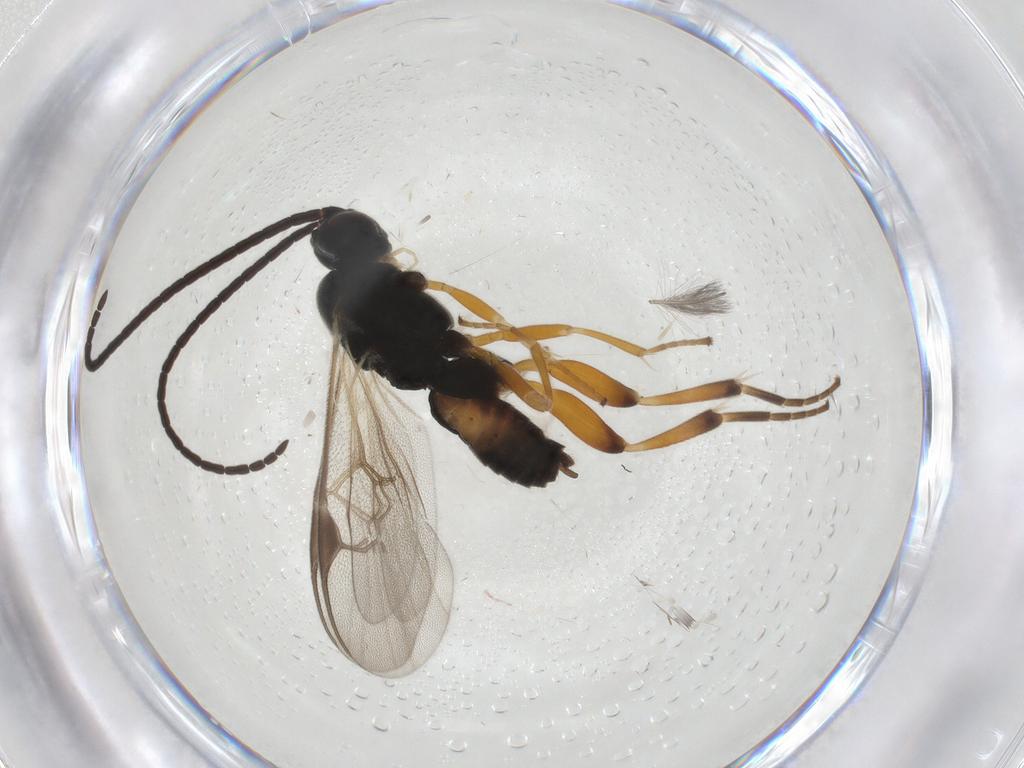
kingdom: Animalia
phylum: Arthropoda
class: Insecta
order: Hymenoptera
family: Braconidae
